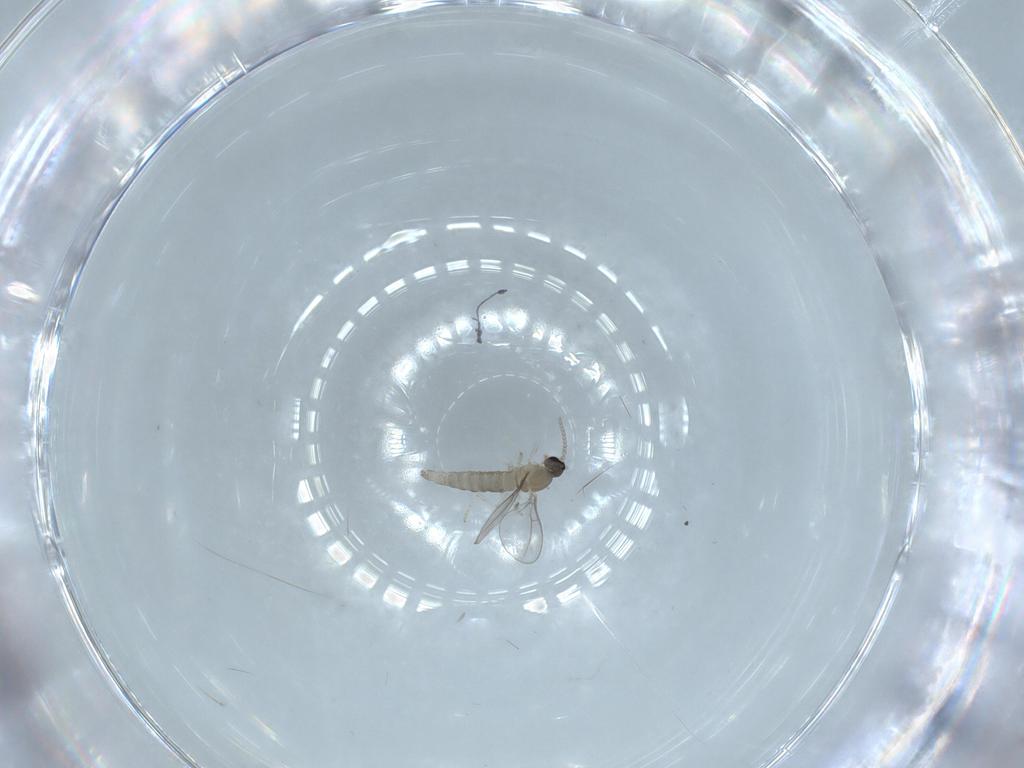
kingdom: Animalia
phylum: Arthropoda
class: Insecta
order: Diptera
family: Cecidomyiidae
